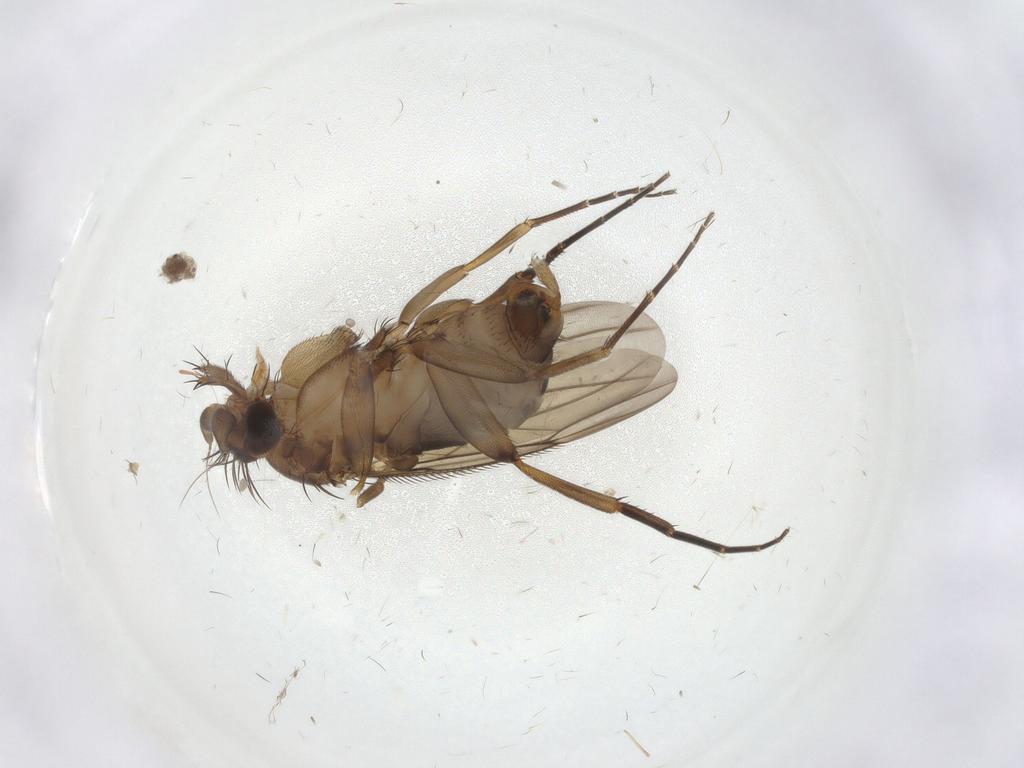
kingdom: Animalia
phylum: Arthropoda
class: Insecta
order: Diptera
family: Phoridae
